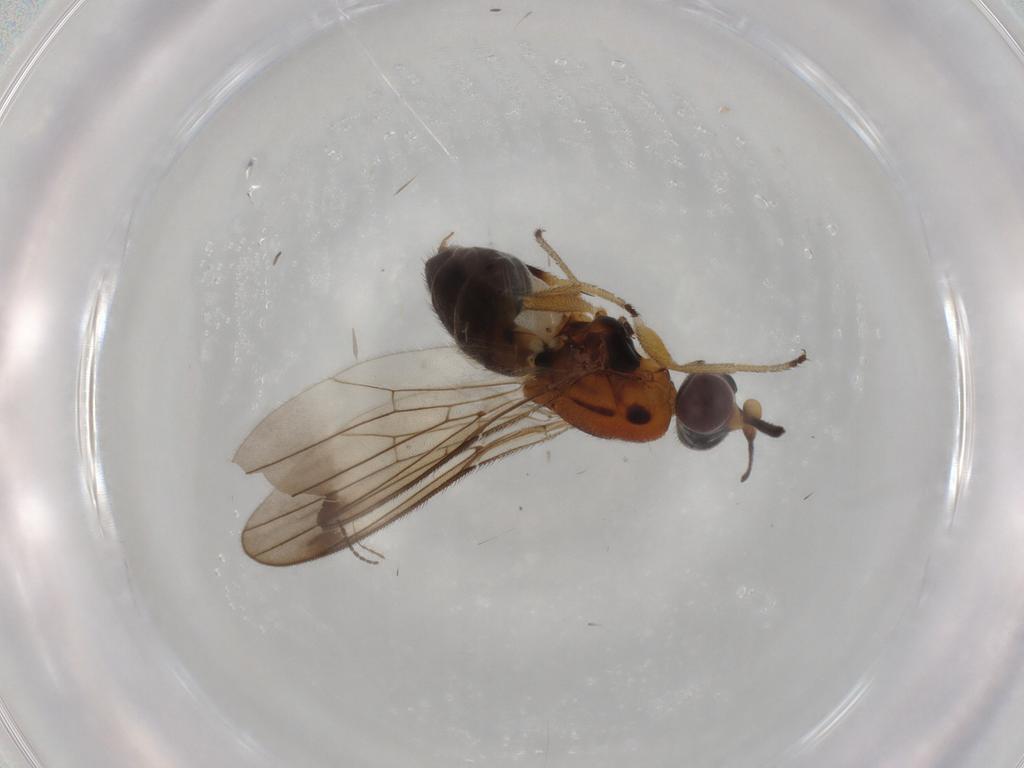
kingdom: Animalia
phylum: Arthropoda
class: Insecta
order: Diptera
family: Chloropidae
